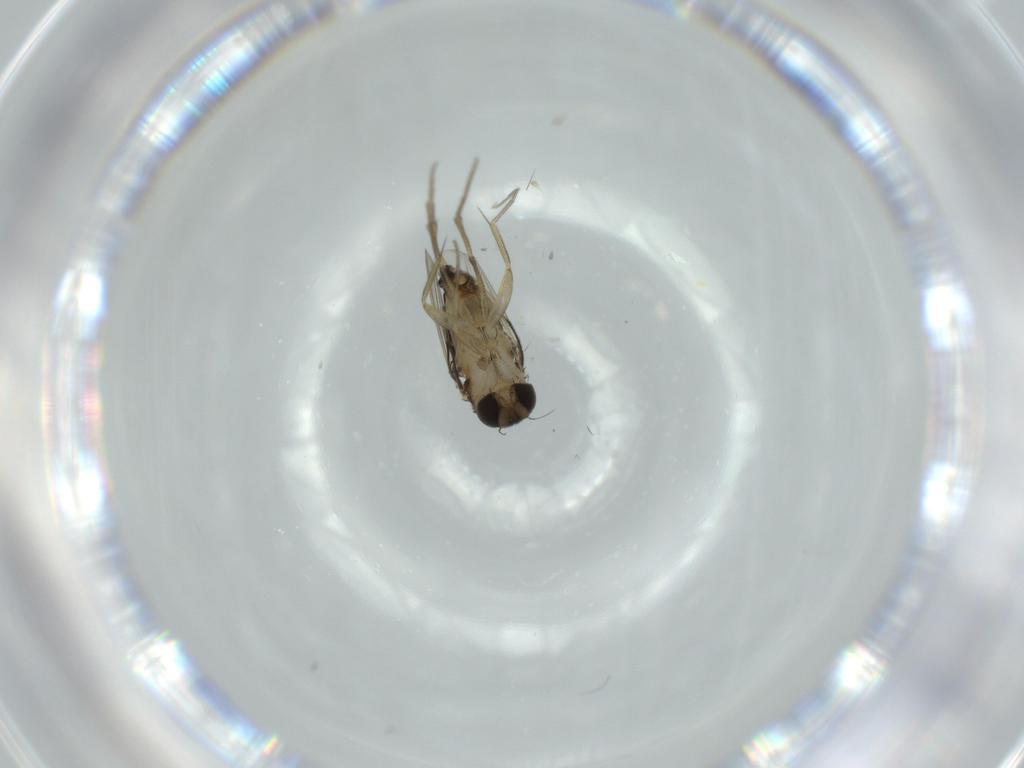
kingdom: Animalia
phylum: Arthropoda
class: Insecta
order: Diptera
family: Phoridae
